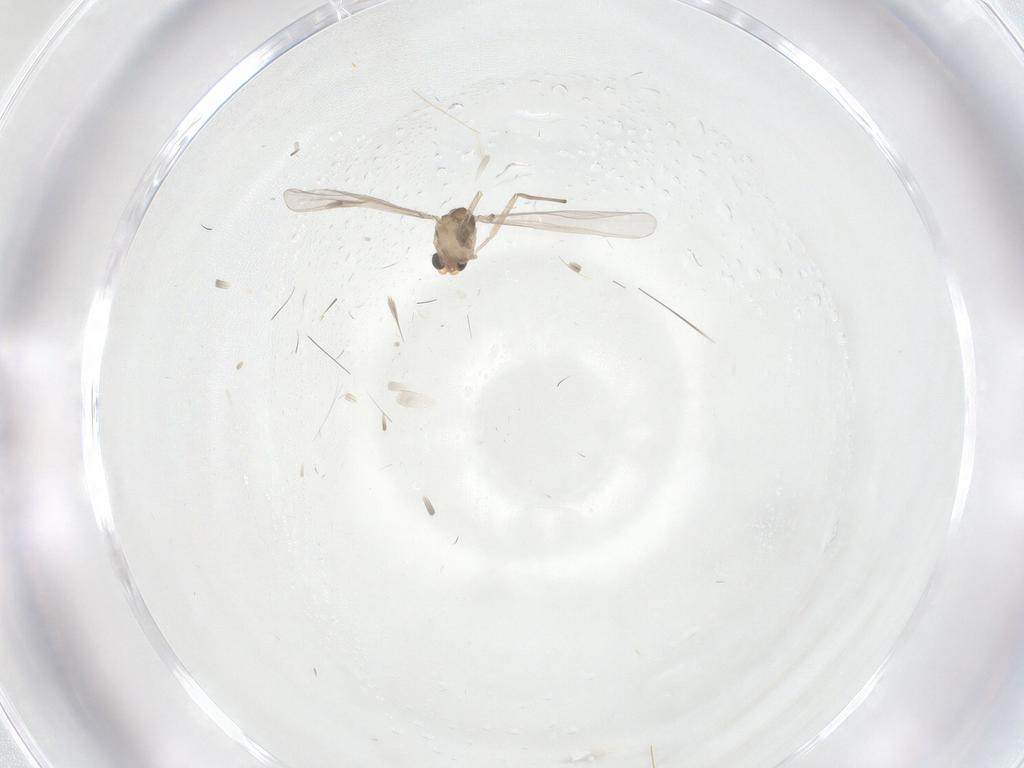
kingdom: Animalia
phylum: Arthropoda
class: Insecta
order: Diptera
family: Chironomidae
